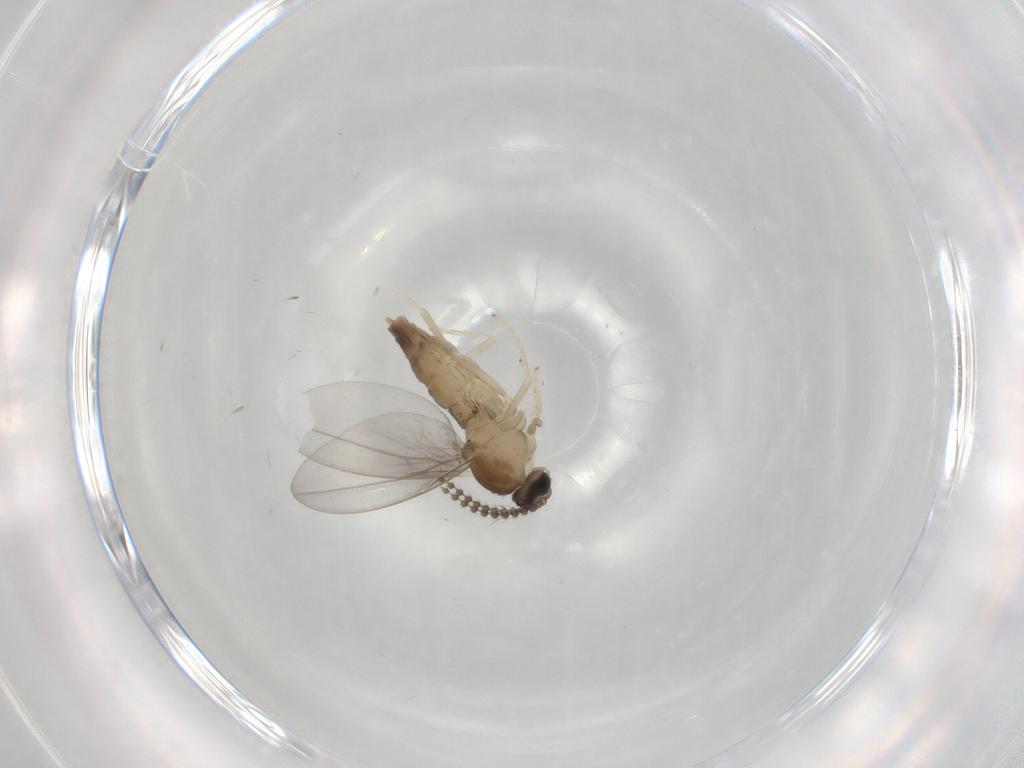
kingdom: Animalia
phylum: Arthropoda
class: Insecta
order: Diptera
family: Cecidomyiidae
